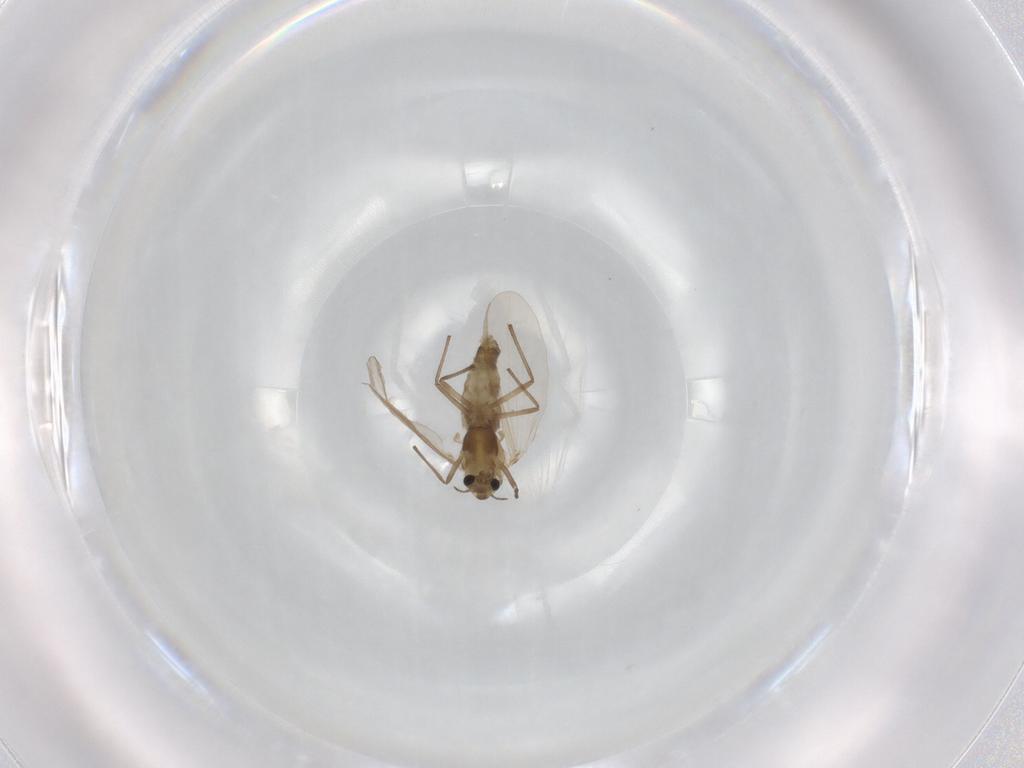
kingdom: Animalia
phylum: Arthropoda
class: Insecta
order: Diptera
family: Chironomidae
